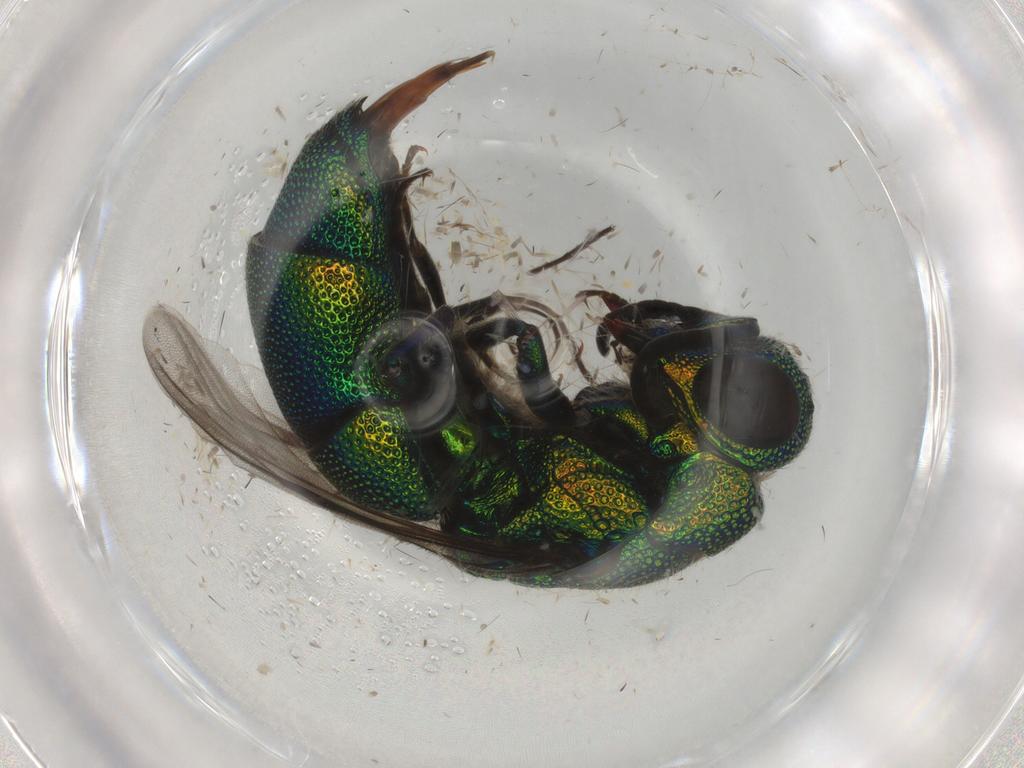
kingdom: Animalia
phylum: Arthropoda
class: Insecta
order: Hymenoptera
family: Chrysididae
